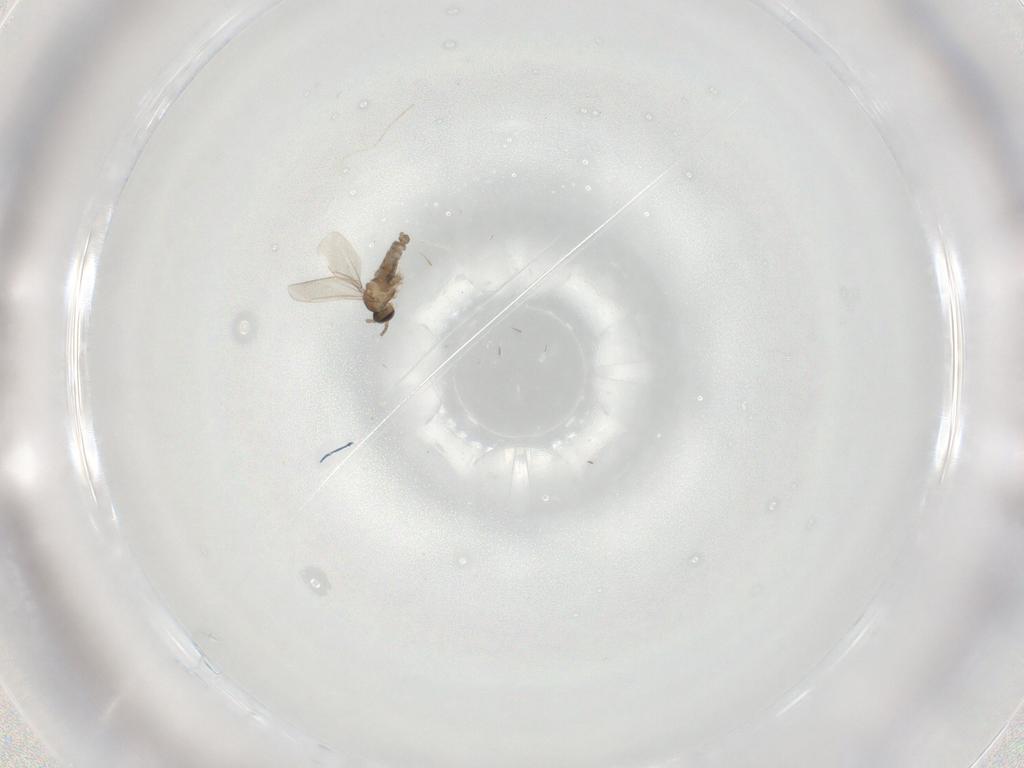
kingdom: Animalia
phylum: Arthropoda
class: Insecta
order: Diptera
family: Cecidomyiidae
